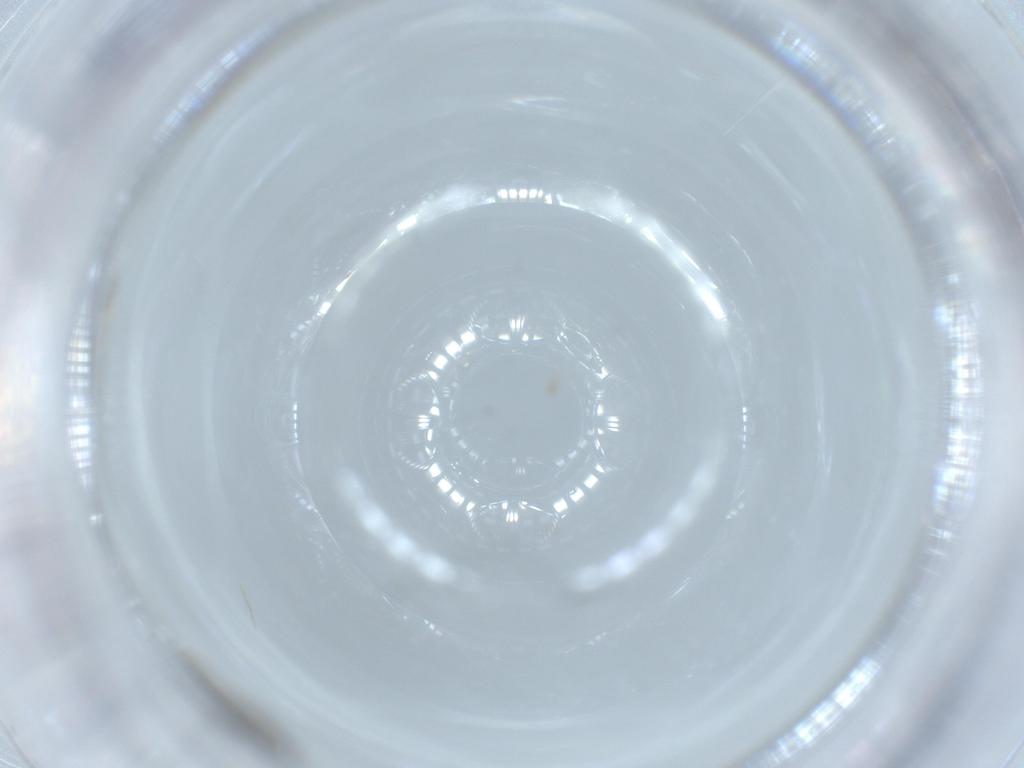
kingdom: Animalia
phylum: Arthropoda
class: Insecta
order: Diptera
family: Sciaridae
